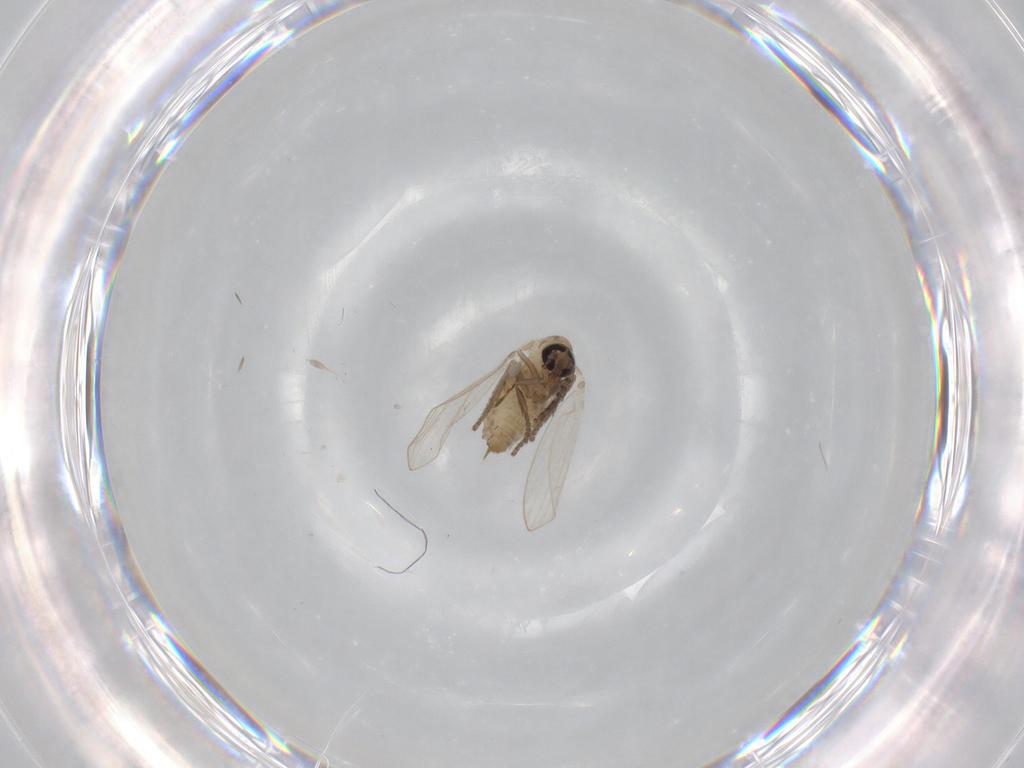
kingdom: Animalia
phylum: Arthropoda
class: Insecta
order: Diptera
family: Psychodidae
